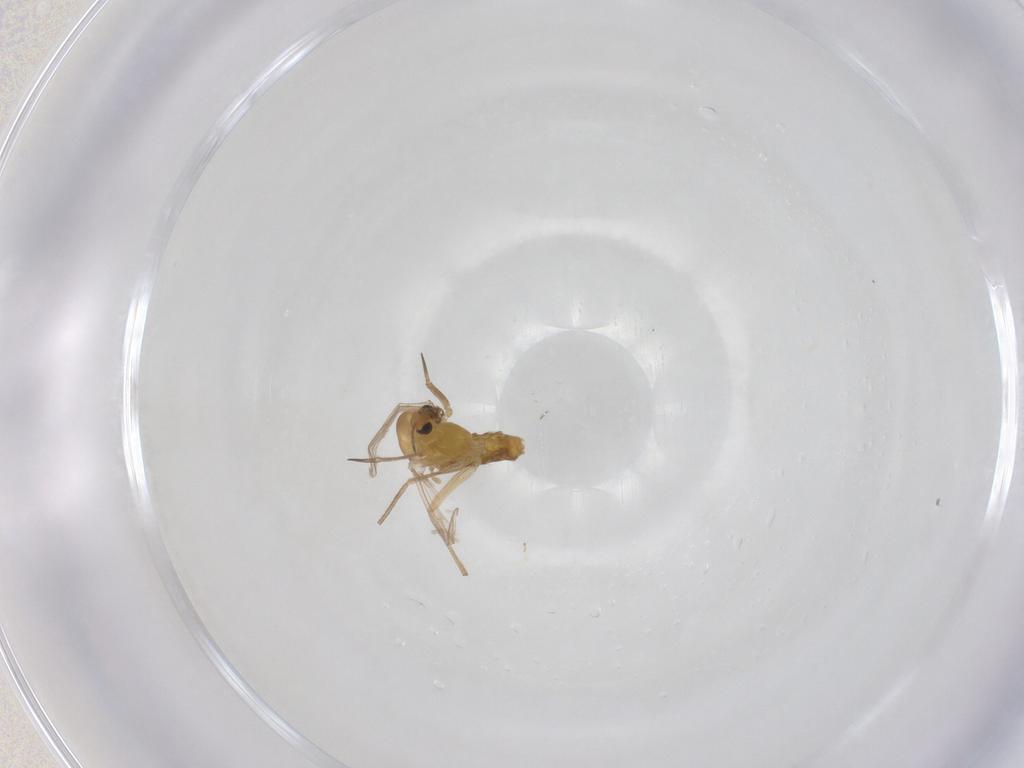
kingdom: Animalia
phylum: Arthropoda
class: Insecta
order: Diptera
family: Chironomidae
